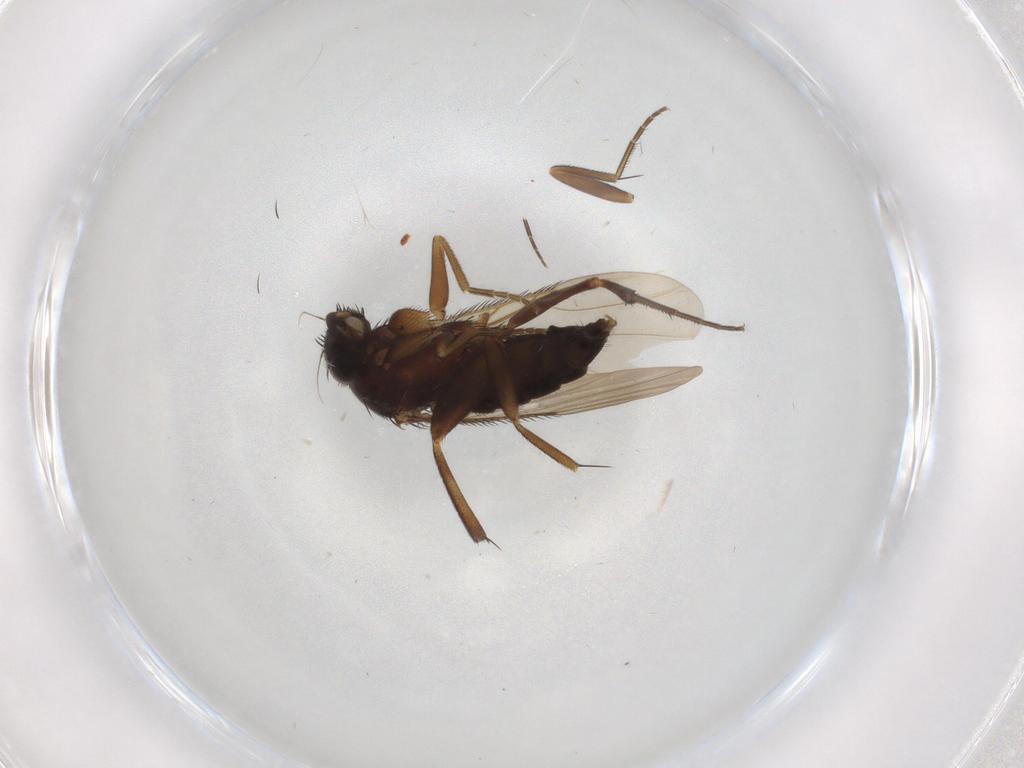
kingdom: Animalia
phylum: Arthropoda
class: Insecta
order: Diptera
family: Phoridae
